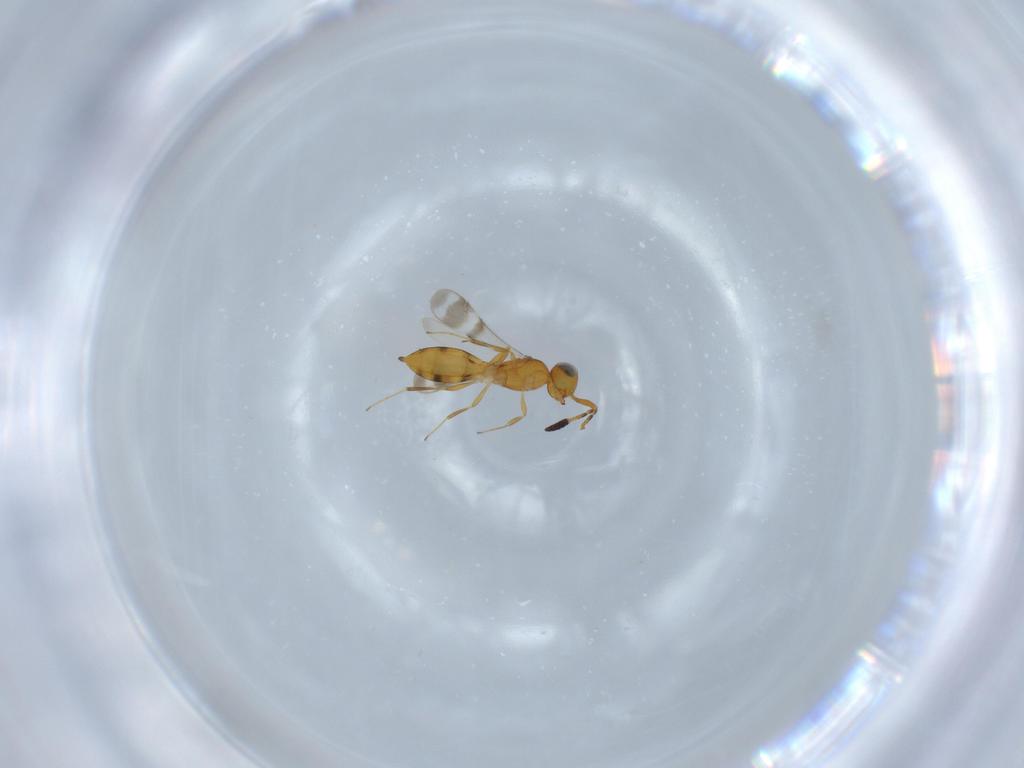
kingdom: Animalia
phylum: Arthropoda
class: Insecta
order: Hymenoptera
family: Scelionidae
